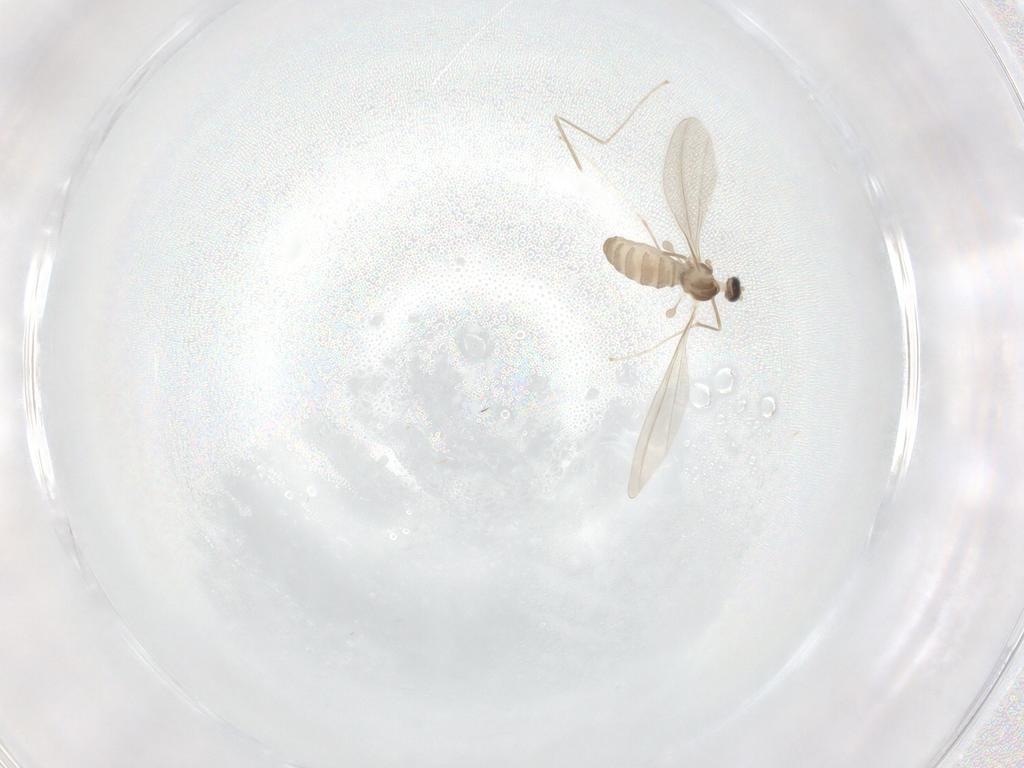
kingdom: Animalia
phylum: Arthropoda
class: Insecta
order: Diptera
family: Cecidomyiidae
